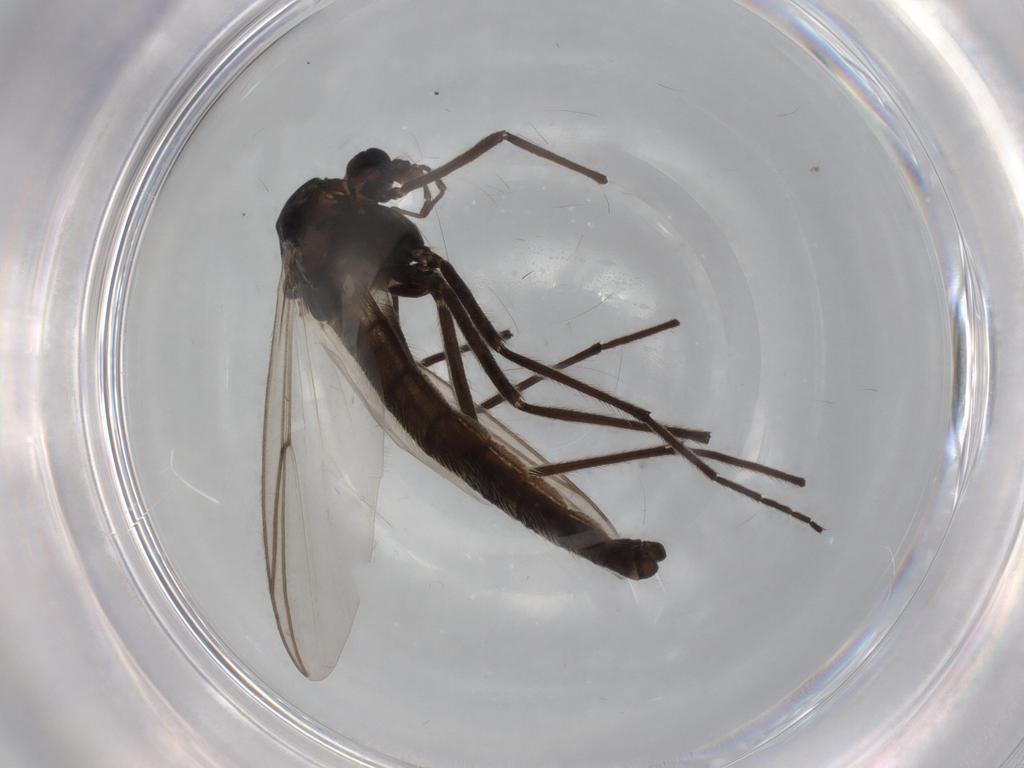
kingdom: Animalia
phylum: Arthropoda
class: Insecta
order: Diptera
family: Chironomidae
